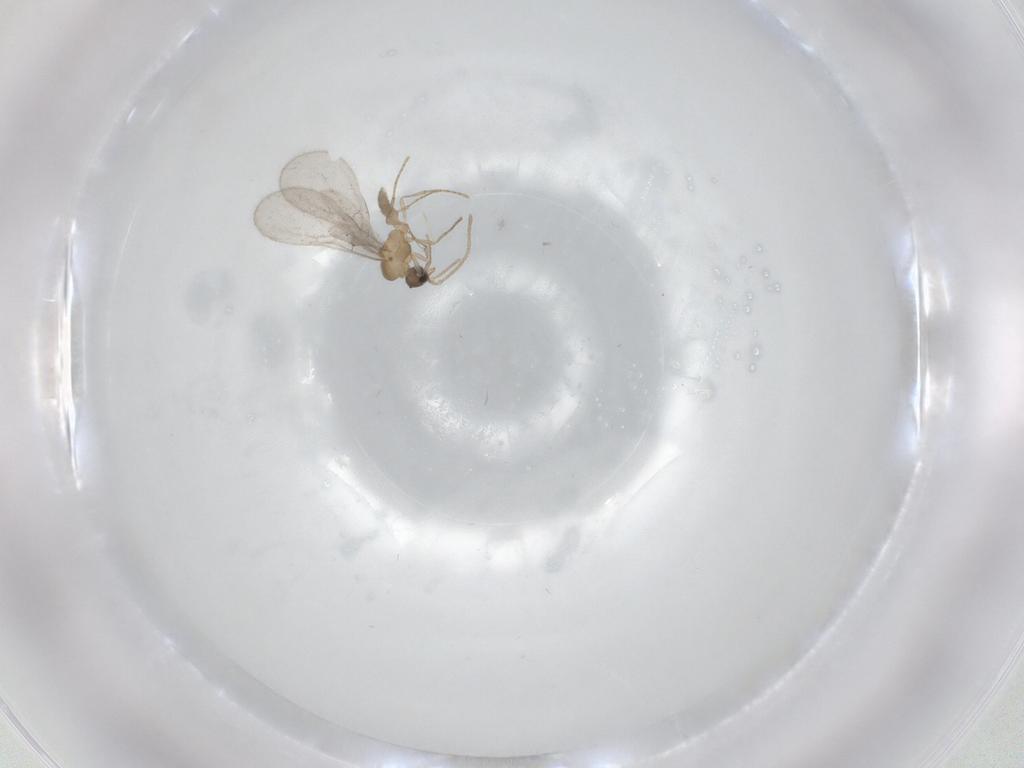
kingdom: Animalia
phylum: Arthropoda
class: Insecta
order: Hymenoptera
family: Formicidae
